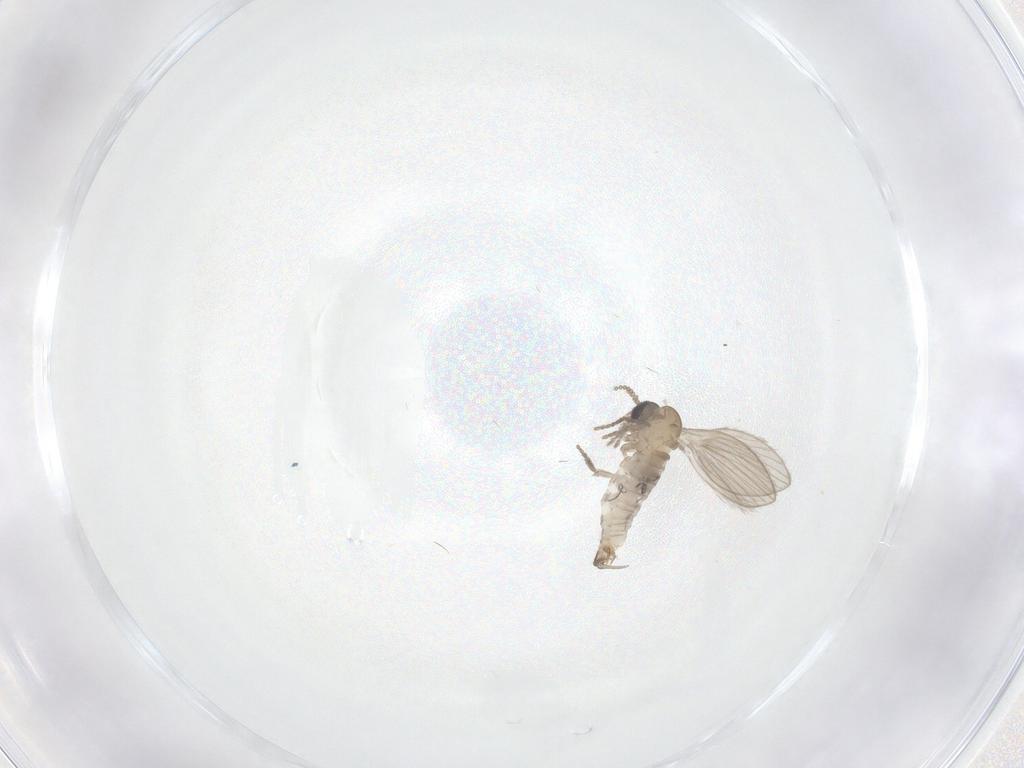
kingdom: Animalia
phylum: Arthropoda
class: Insecta
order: Diptera
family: Psychodidae
